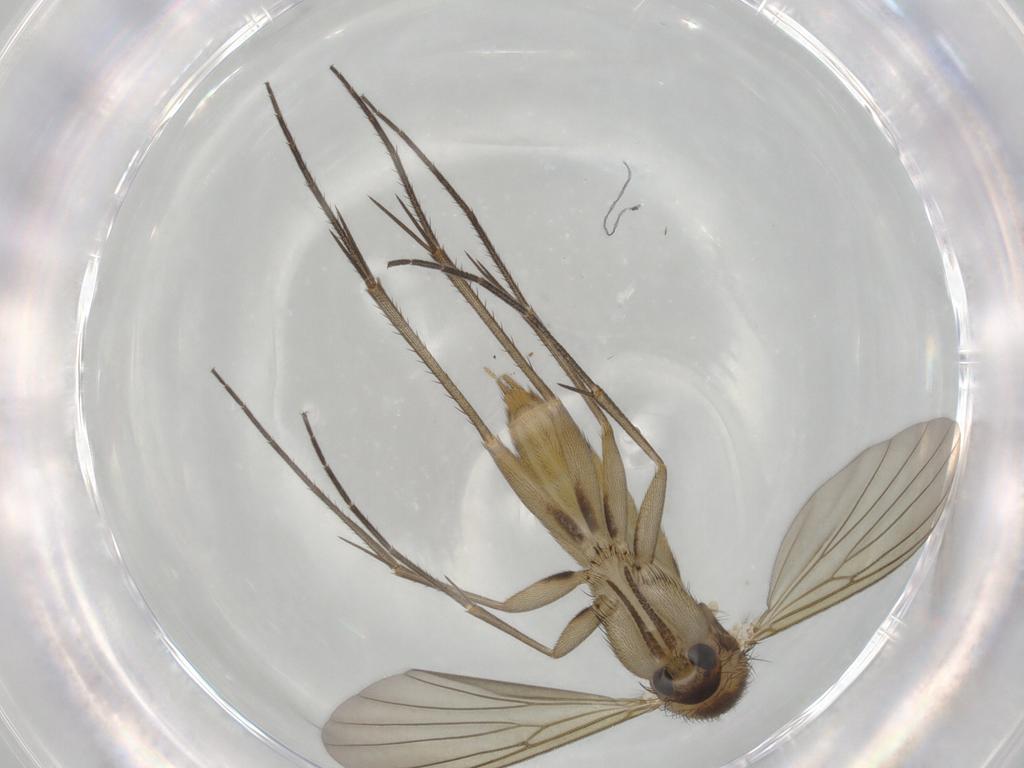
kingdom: Animalia
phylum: Arthropoda
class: Insecta
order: Diptera
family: Mycetophilidae
